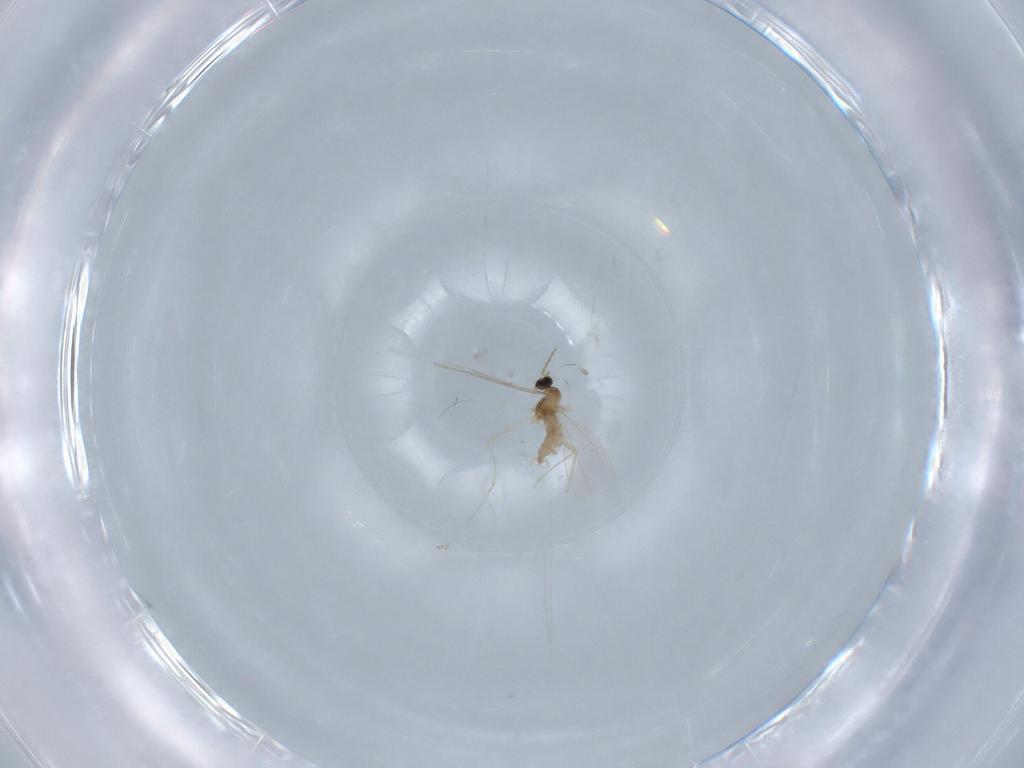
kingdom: Animalia
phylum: Arthropoda
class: Insecta
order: Diptera
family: Cecidomyiidae
